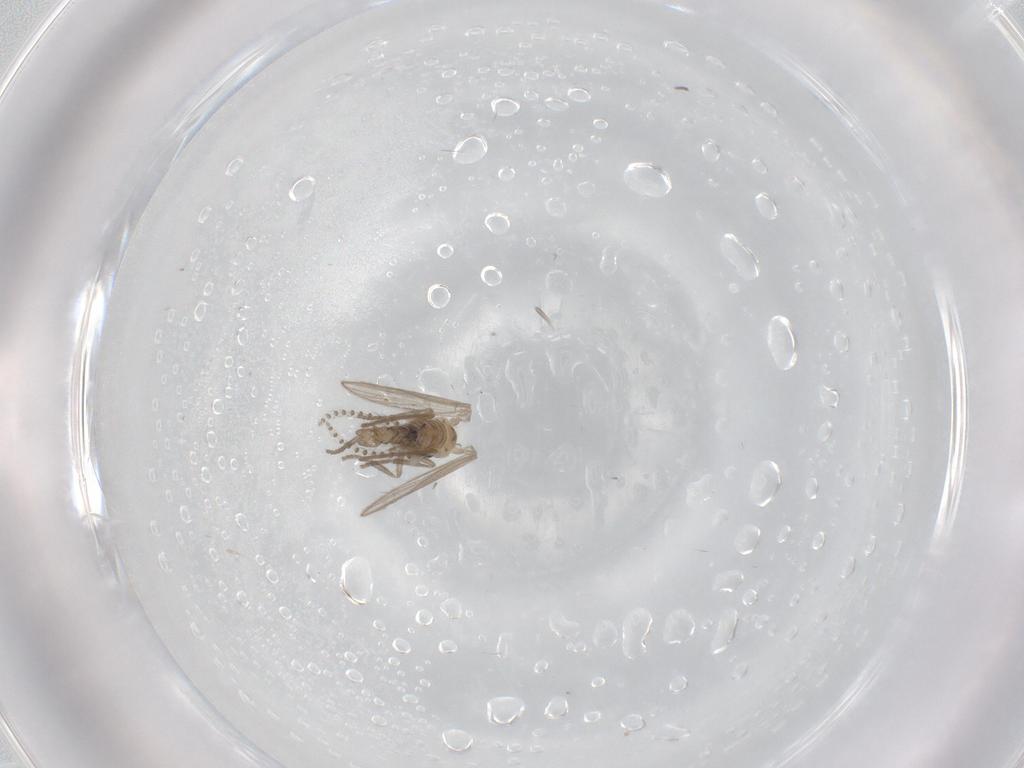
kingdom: Animalia
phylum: Arthropoda
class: Insecta
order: Diptera
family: Psychodidae
